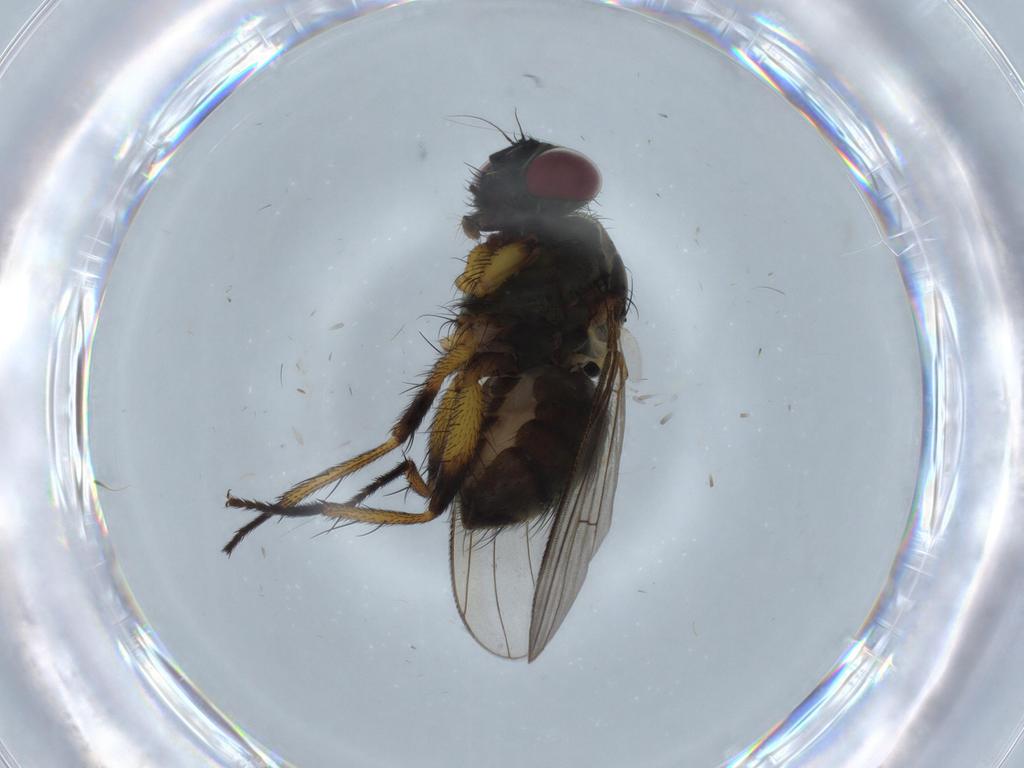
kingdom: Animalia
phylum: Arthropoda
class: Insecta
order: Diptera
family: Muscidae
